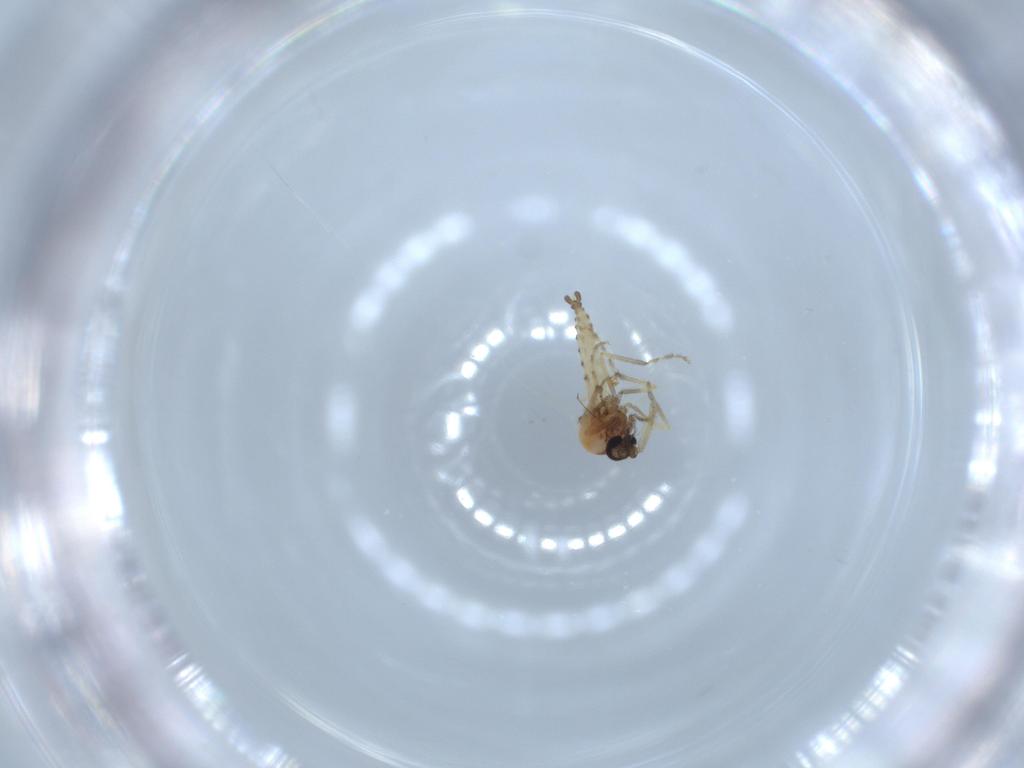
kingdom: Animalia
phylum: Arthropoda
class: Insecta
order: Diptera
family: Ceratopogonidae
